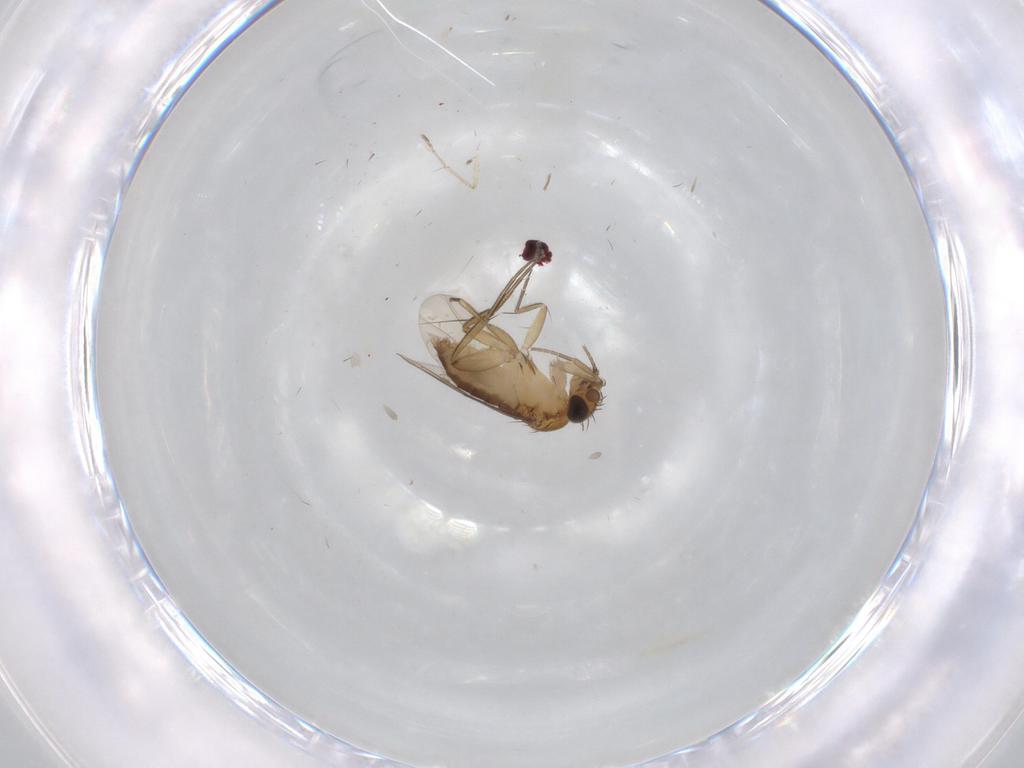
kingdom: Animalia
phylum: Arthropoda
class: Insecta
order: Diptera
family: Phoridae
